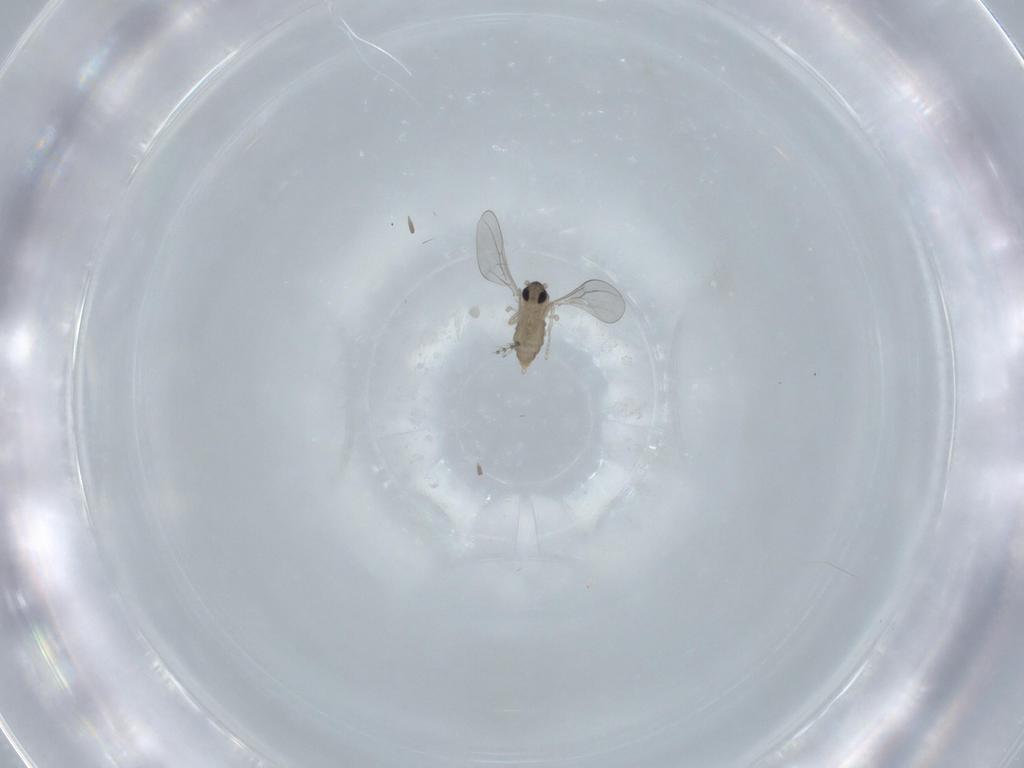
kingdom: Animalia
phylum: Arthropoda
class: Insecta
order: Diptera
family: Cecidomyiidae
